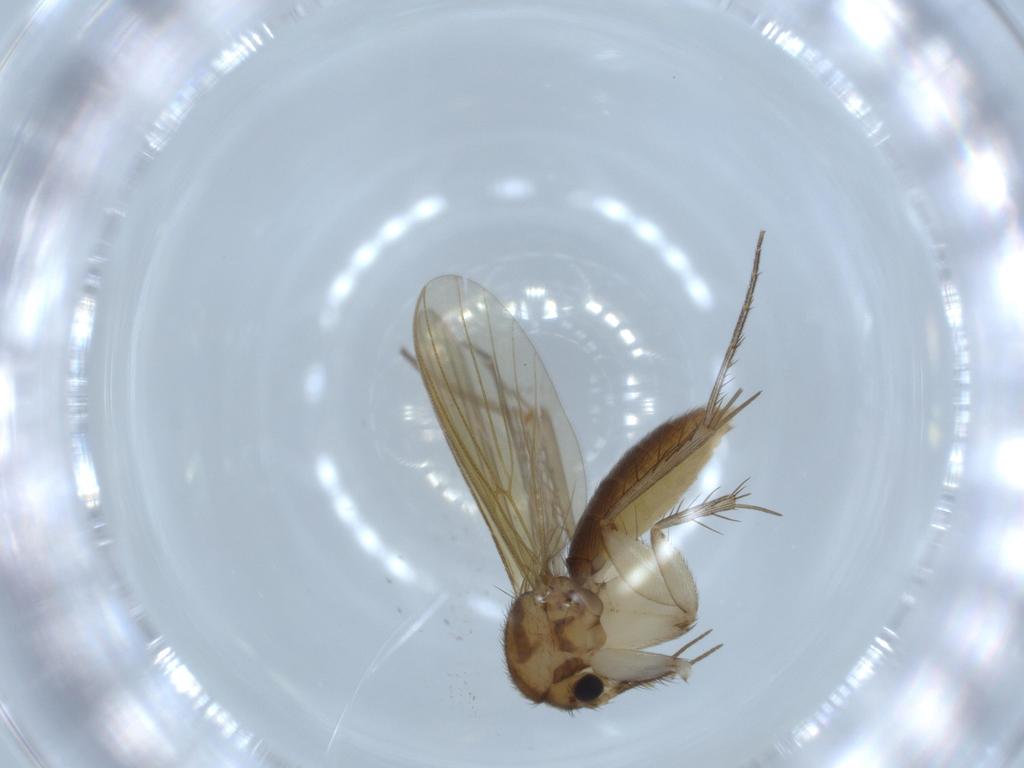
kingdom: Animalia
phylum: Arthropoda
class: Insecta
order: Diptera
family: Mycetophilidae
